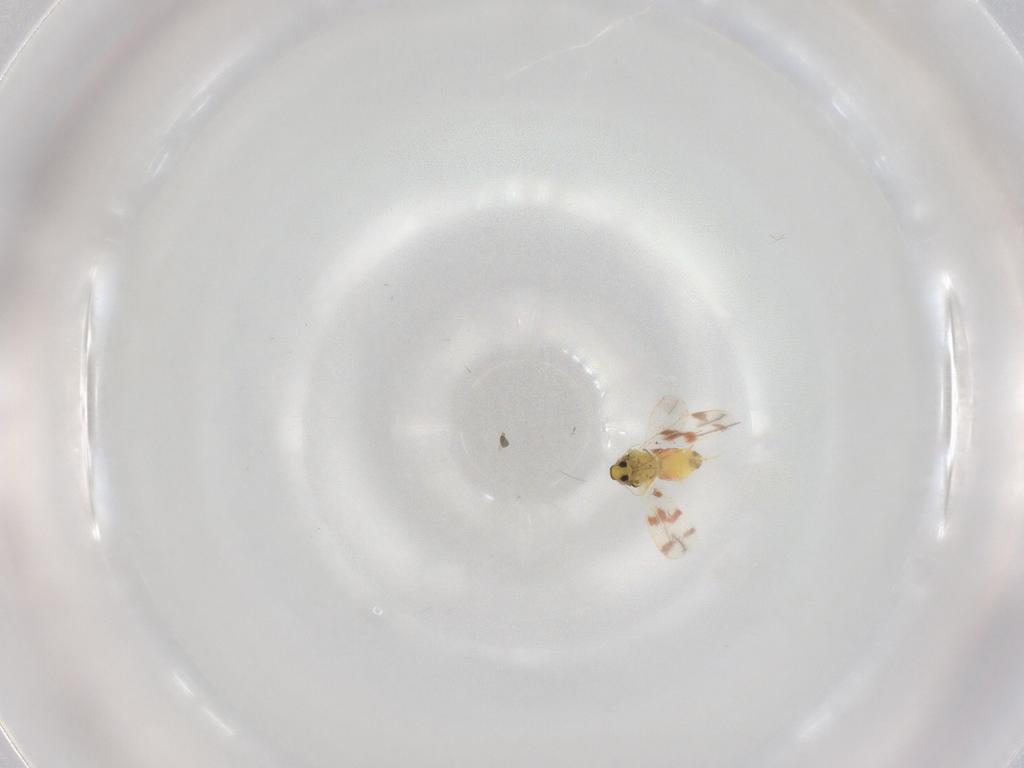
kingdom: Animalia
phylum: Arthropoda
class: Insecta
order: Hemiptera
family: Aleyrodidae
